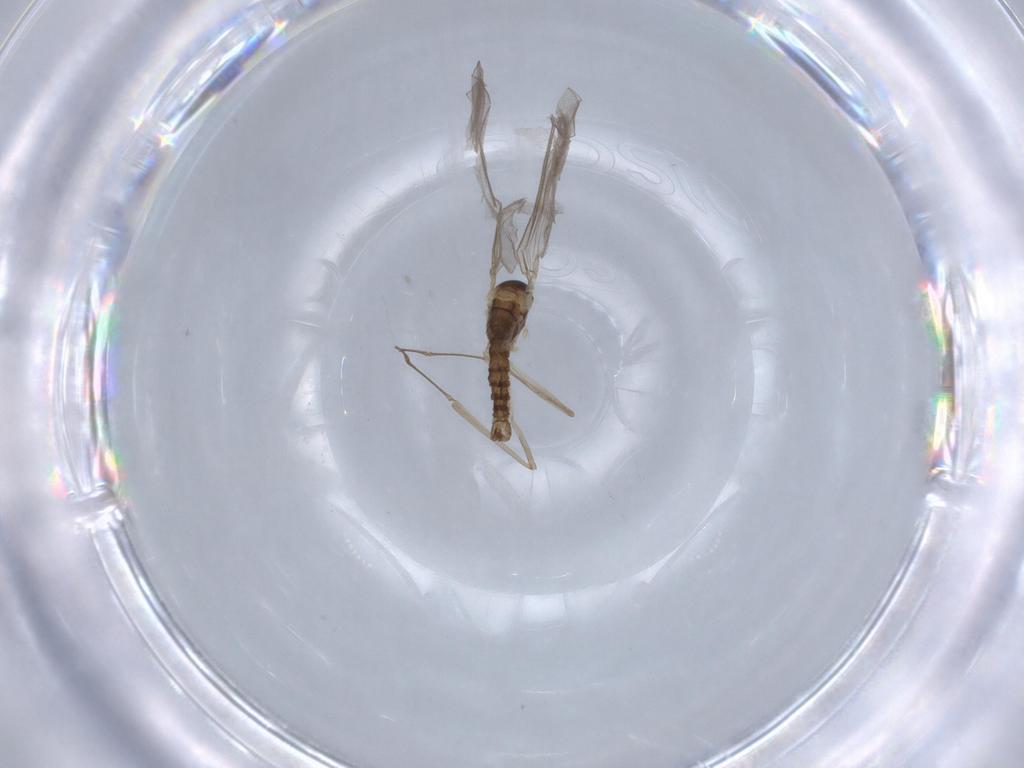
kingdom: Animalia
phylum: Arthropoda
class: Insecta
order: Diptera
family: Cecidomyiidae
